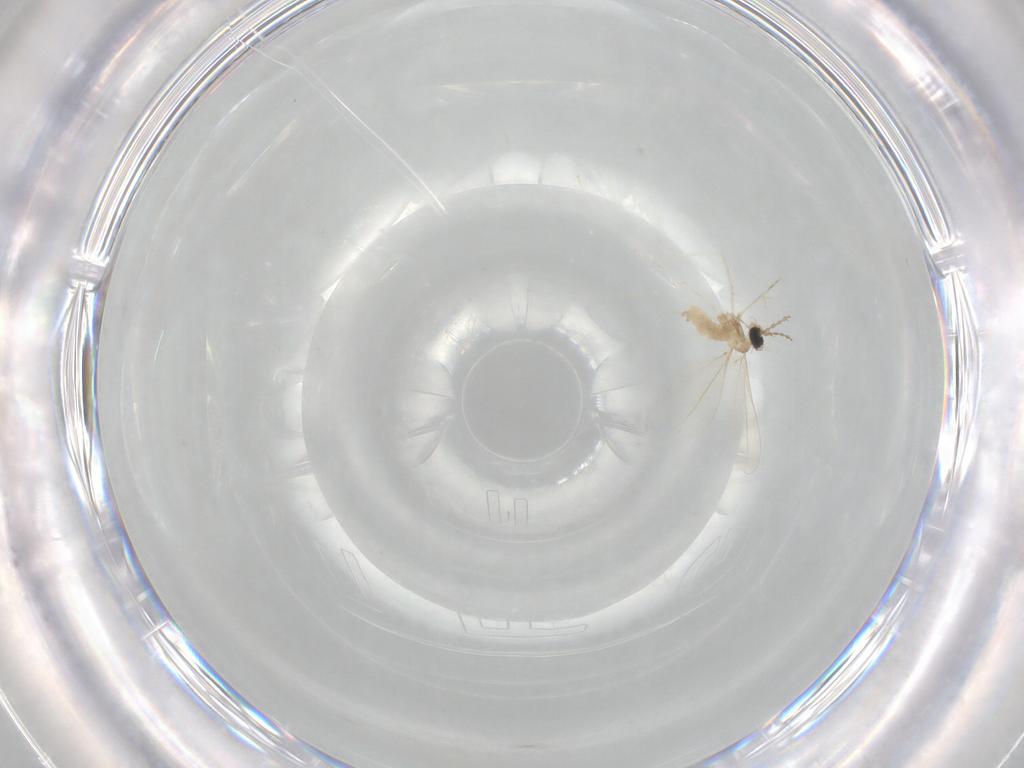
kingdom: Animalia
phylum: Arthropoda
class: Insecta
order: Diptera
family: Cecidomyiidae
